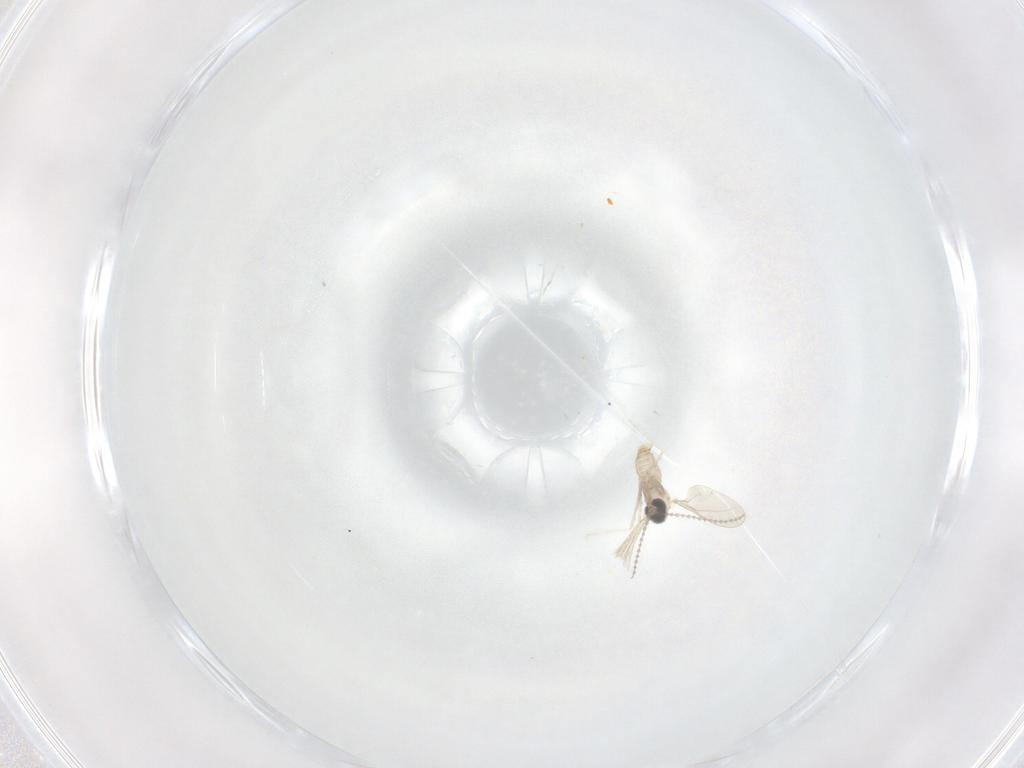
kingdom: Animalia
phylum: Arthropoda
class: Insecta
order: Diptera
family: Cecidomyiidae
